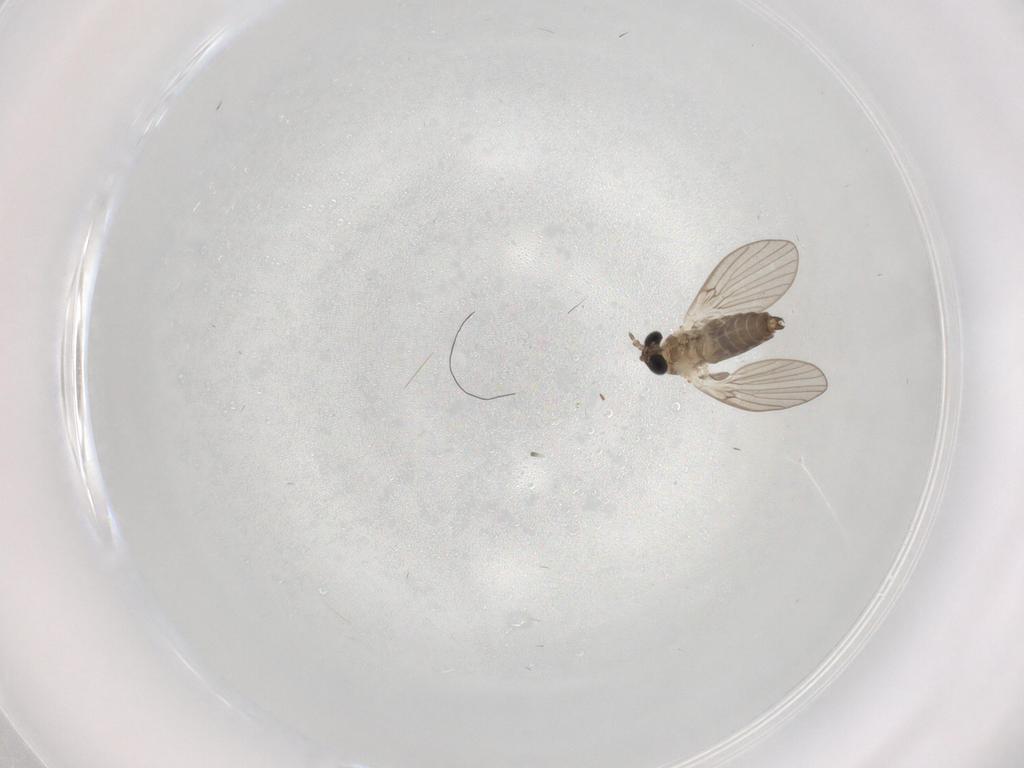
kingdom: Animalia
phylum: Arthropoda
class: Insecta
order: Diptera
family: Psychodidae
